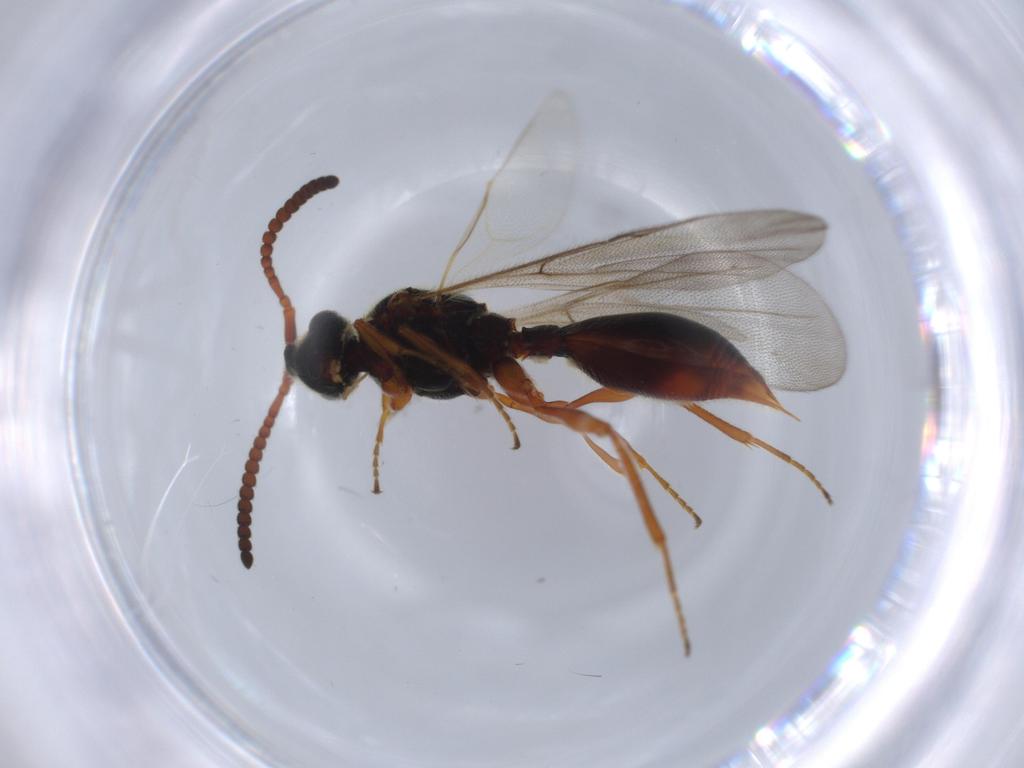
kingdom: Animalia
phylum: Arthropoda
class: Insecta
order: Hymenoptera
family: Diapriidae
